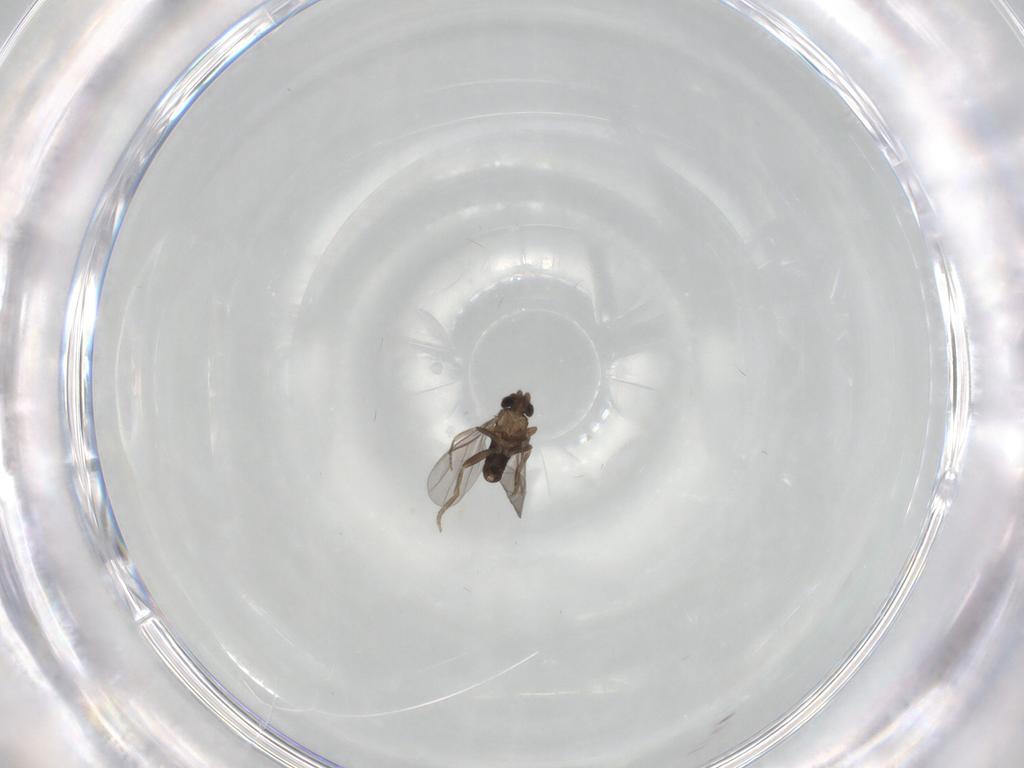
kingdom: Animalia
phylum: Arthropoda
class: Insecta
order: Diptera
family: Phoridae
